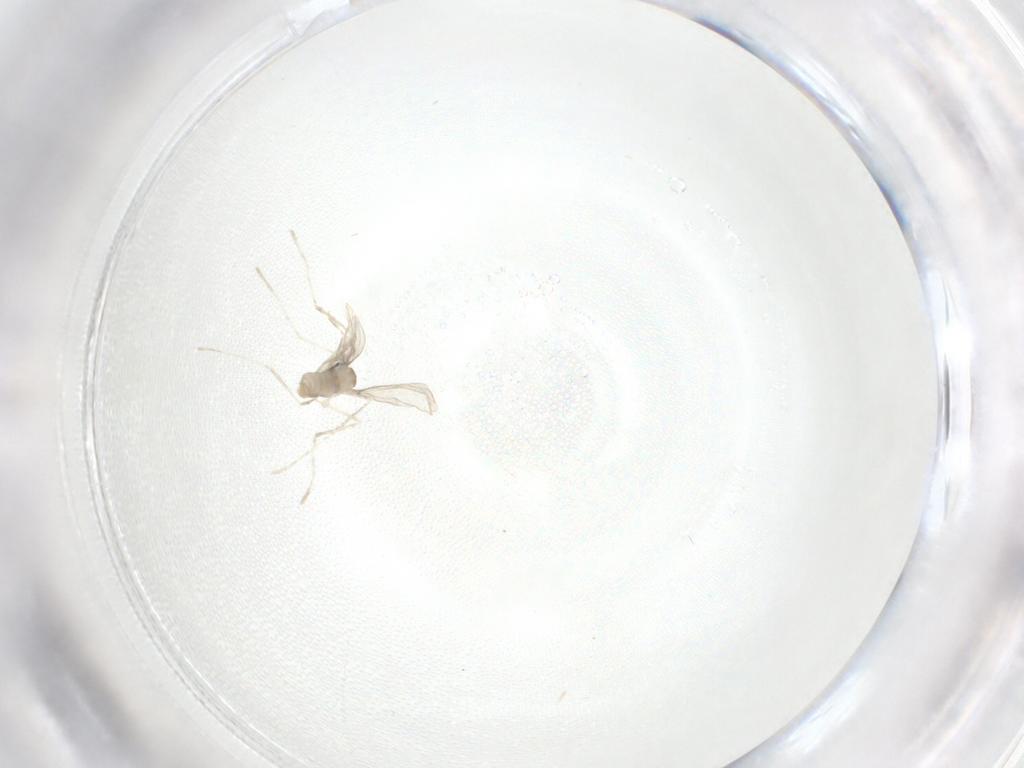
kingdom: Animalia
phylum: Arthropoda
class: Insecta
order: Diptera
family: Cecidomyiidae
